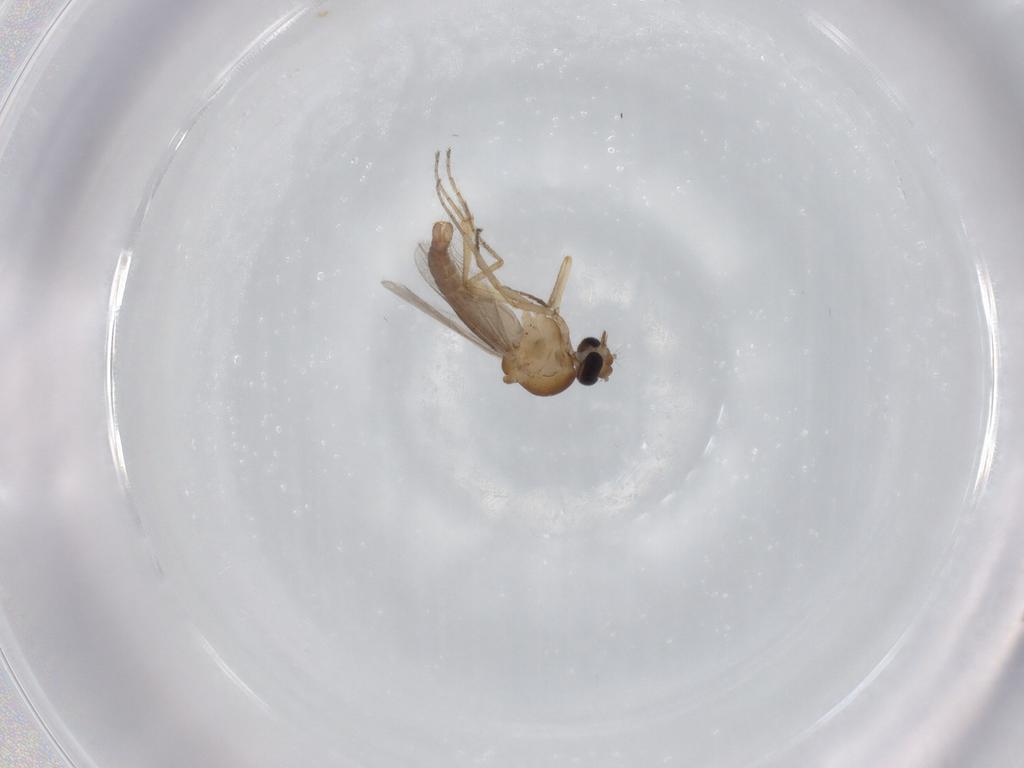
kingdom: Animalia
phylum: Arthropoda
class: Insecta
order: Diptera
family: Ceratopogonidae
